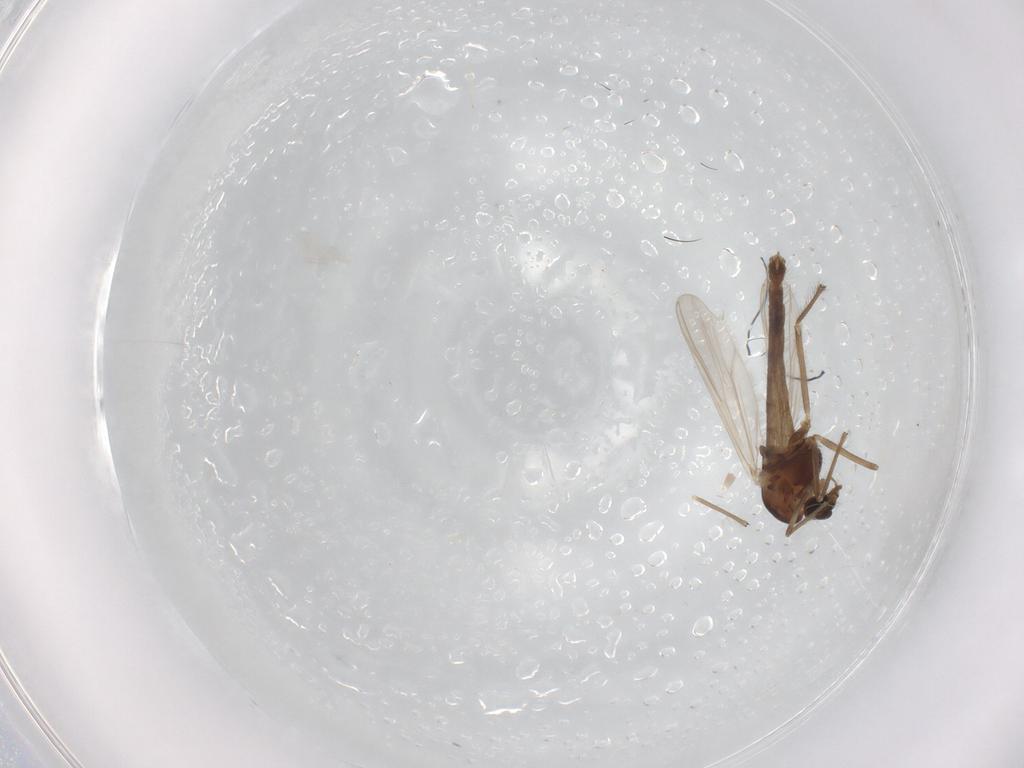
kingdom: Animalia
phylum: Arthropoda
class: Insecta
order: Diptera
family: Chironomidae
